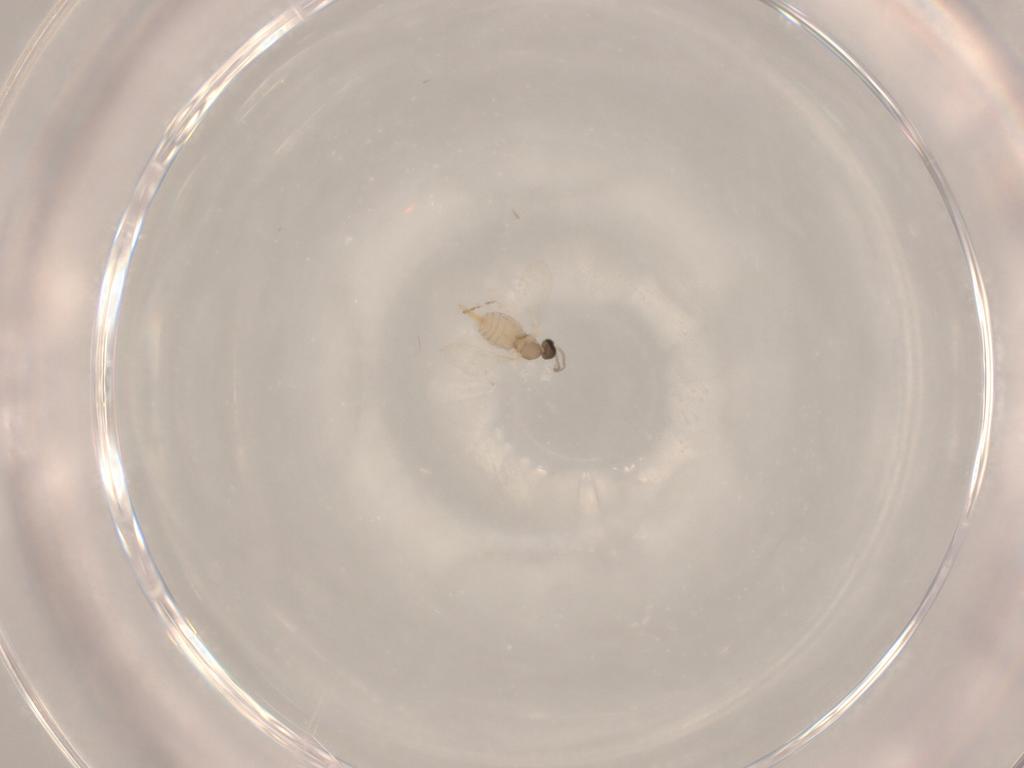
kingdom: Animalia
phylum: Arthropoda
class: Insecta
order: Diptera
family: Cecidomyiidae
